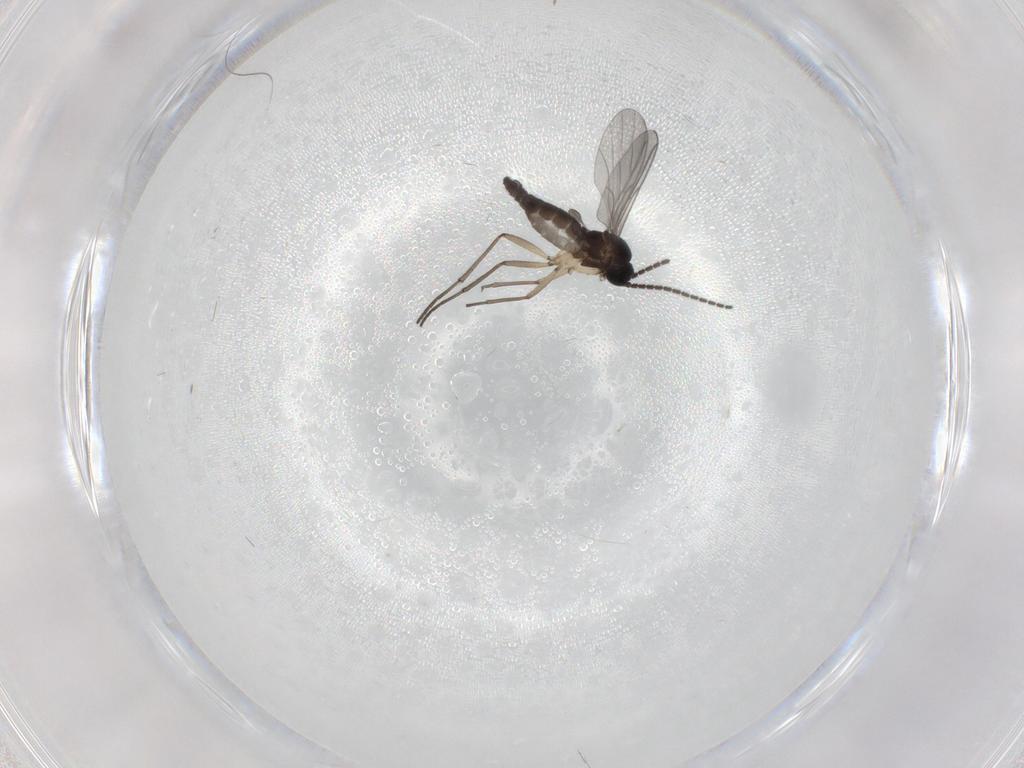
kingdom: Animalia
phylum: Arthropoda
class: Insecta
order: Diptera
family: Sciaridae
